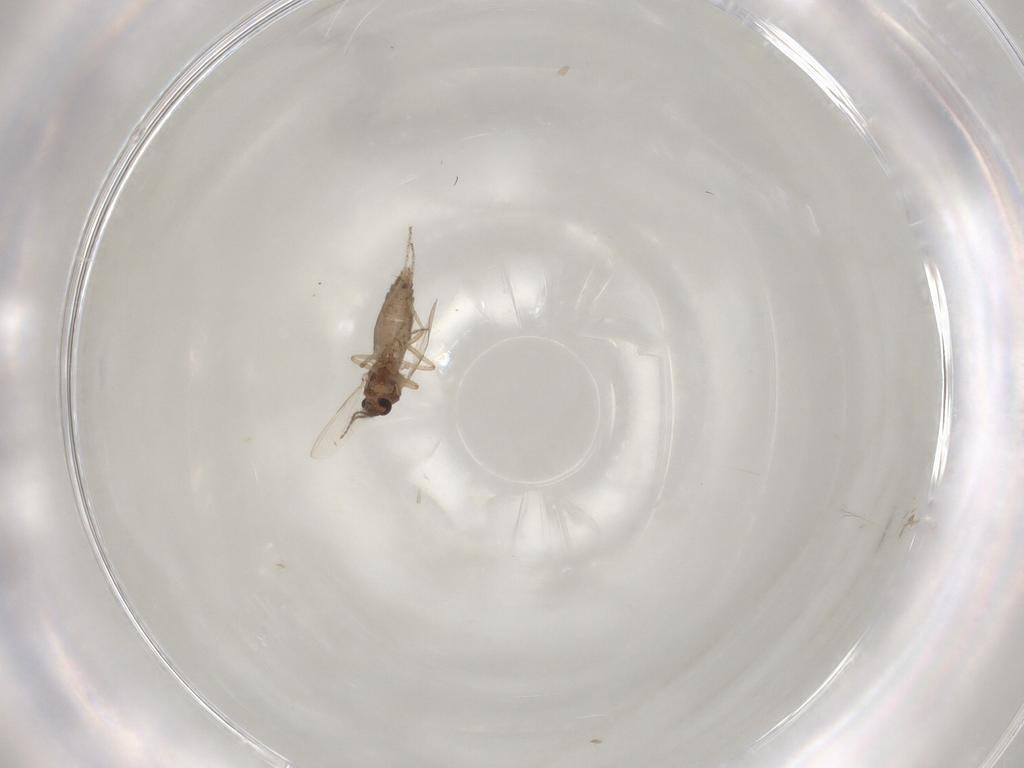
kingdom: Animalia
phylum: Arthropoda
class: Insecta
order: Diptera
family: Ceratopogonidae
